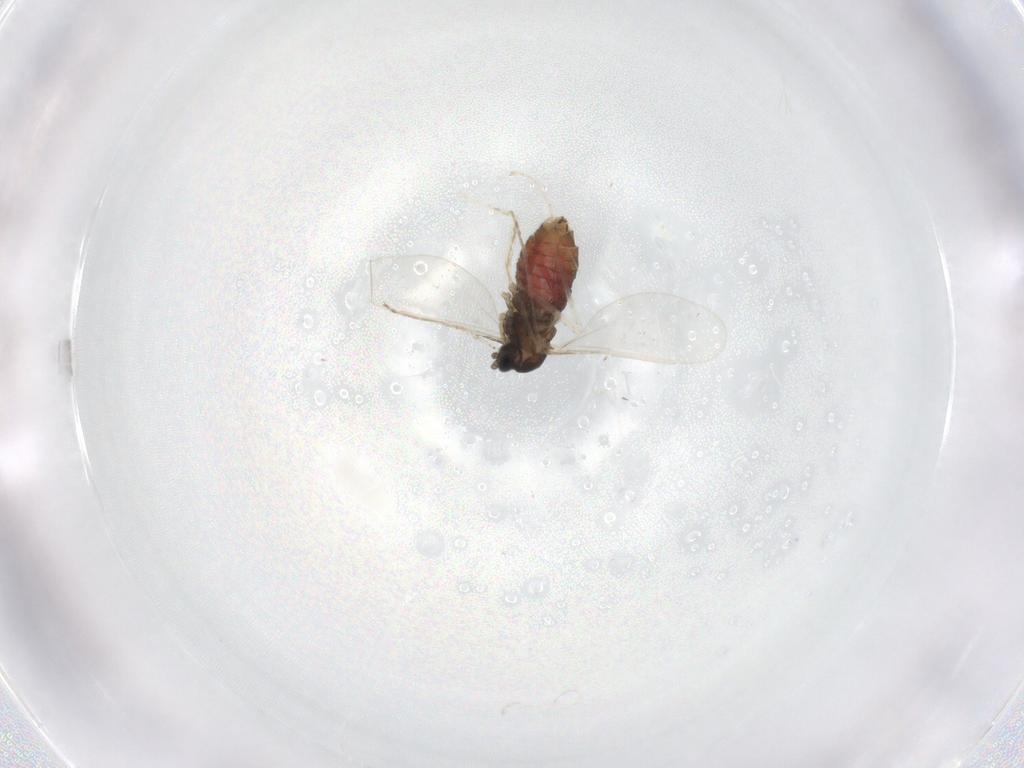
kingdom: Animalia
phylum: Arthropoda
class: Insecta
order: Diptera
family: Cecidomyiidae
